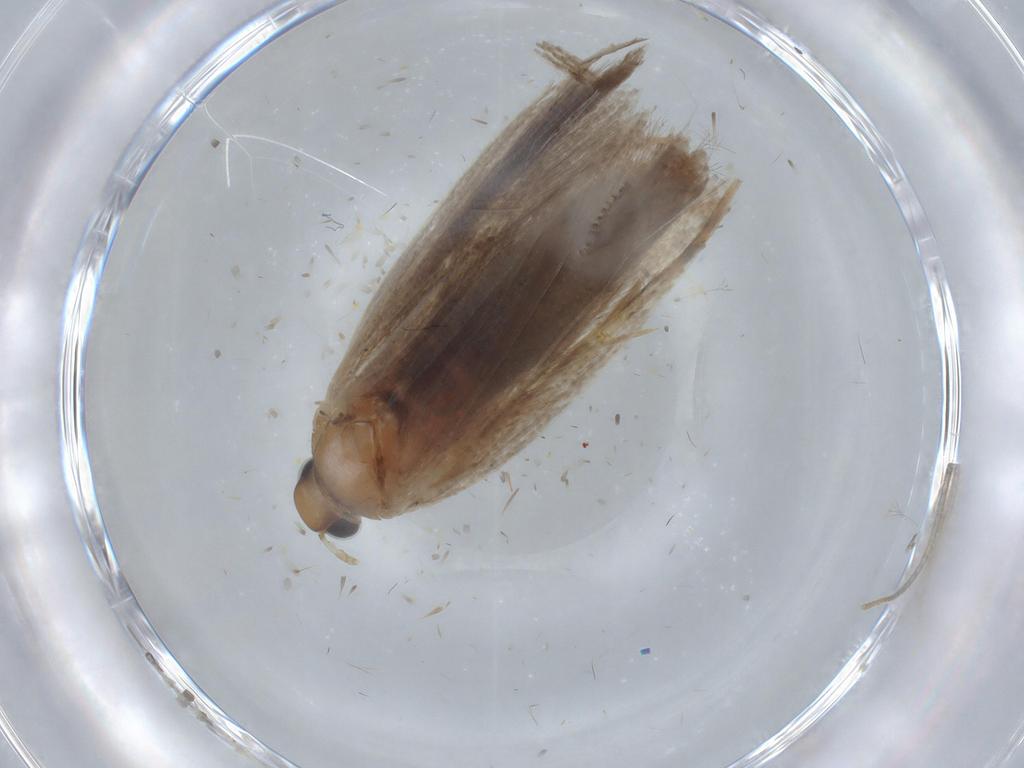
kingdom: Animalia
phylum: Arthropoda
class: Insecta
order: Lepidoptera
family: Gelechiidae
